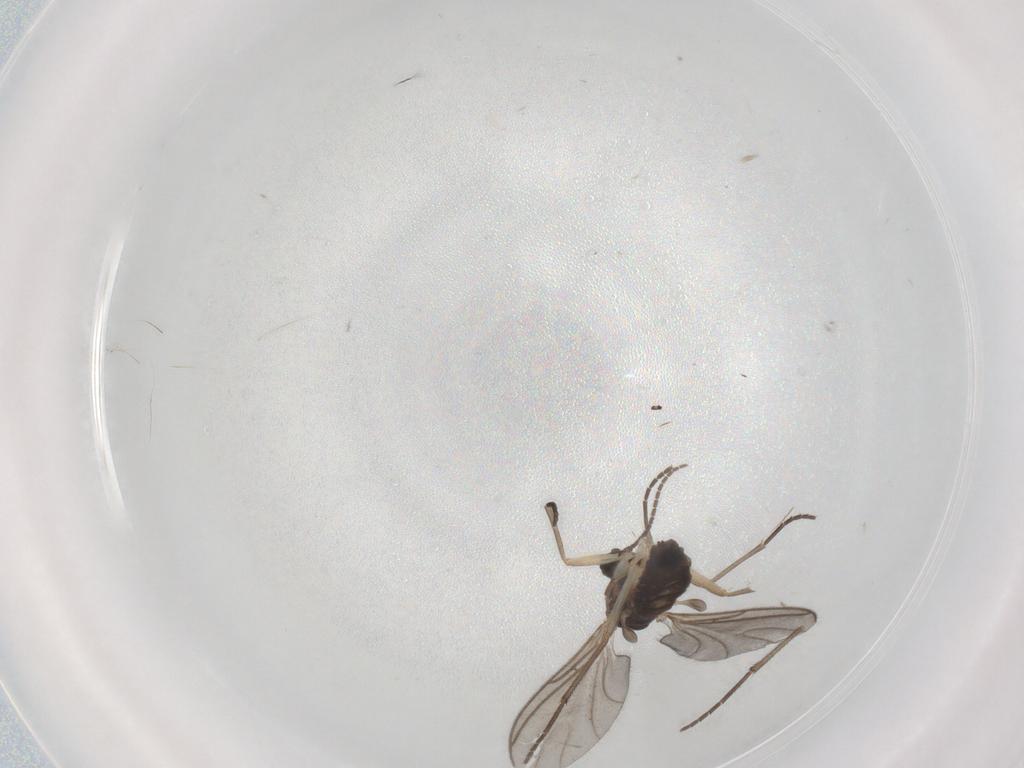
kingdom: Animalia
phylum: Arthropoda
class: Insecta
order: Diptera
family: Sciaridae
